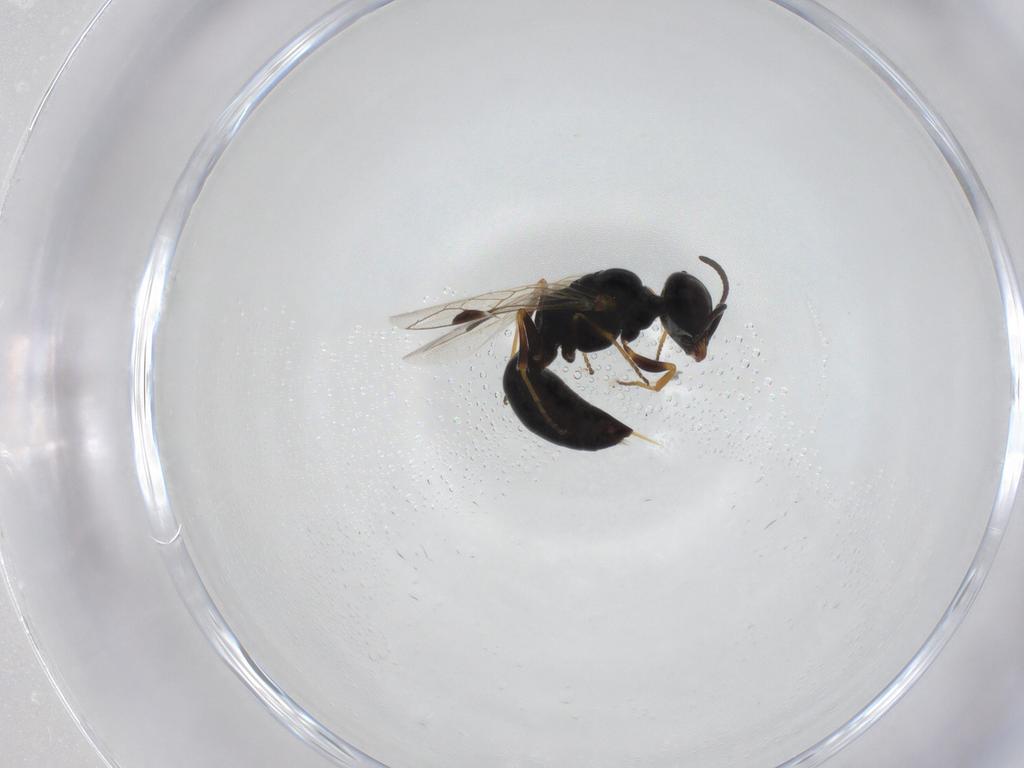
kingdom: Animalia
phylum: Arthropoda
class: Insecta
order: Hymenoptera
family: Pemphredonidae
